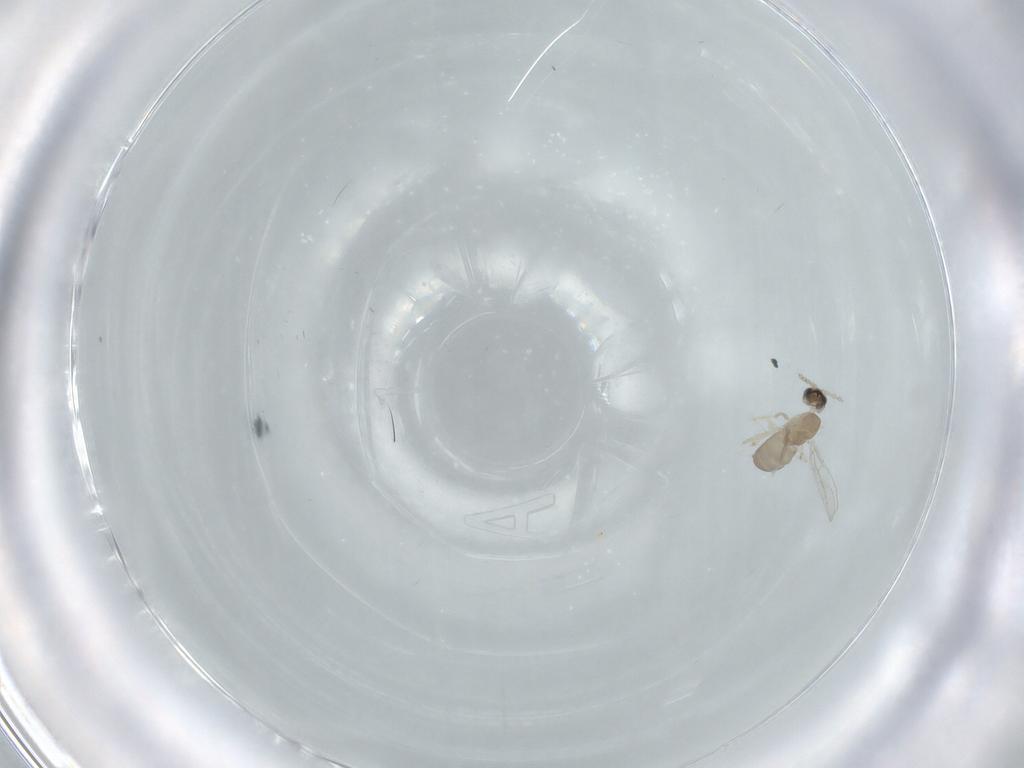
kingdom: Animalia
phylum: Arthropoda
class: Insecta
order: Diptera
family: Cecidomyiidae
